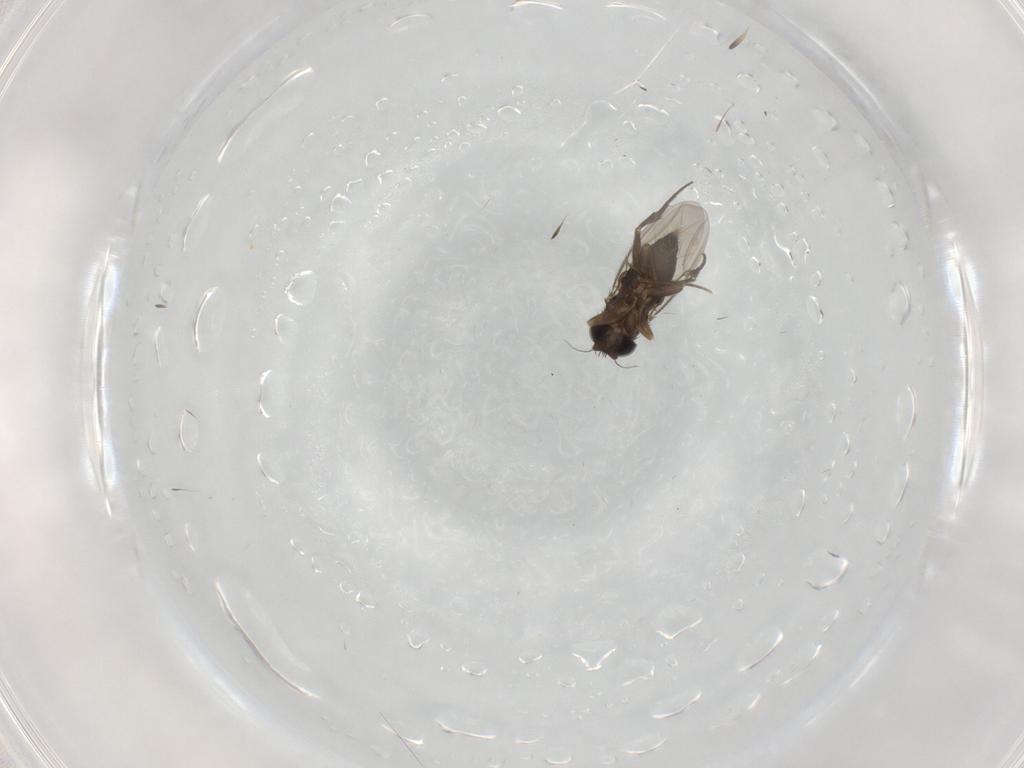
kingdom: Animalia
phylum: Arthropoda
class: Insecta
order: Diptera
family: Phoridae
